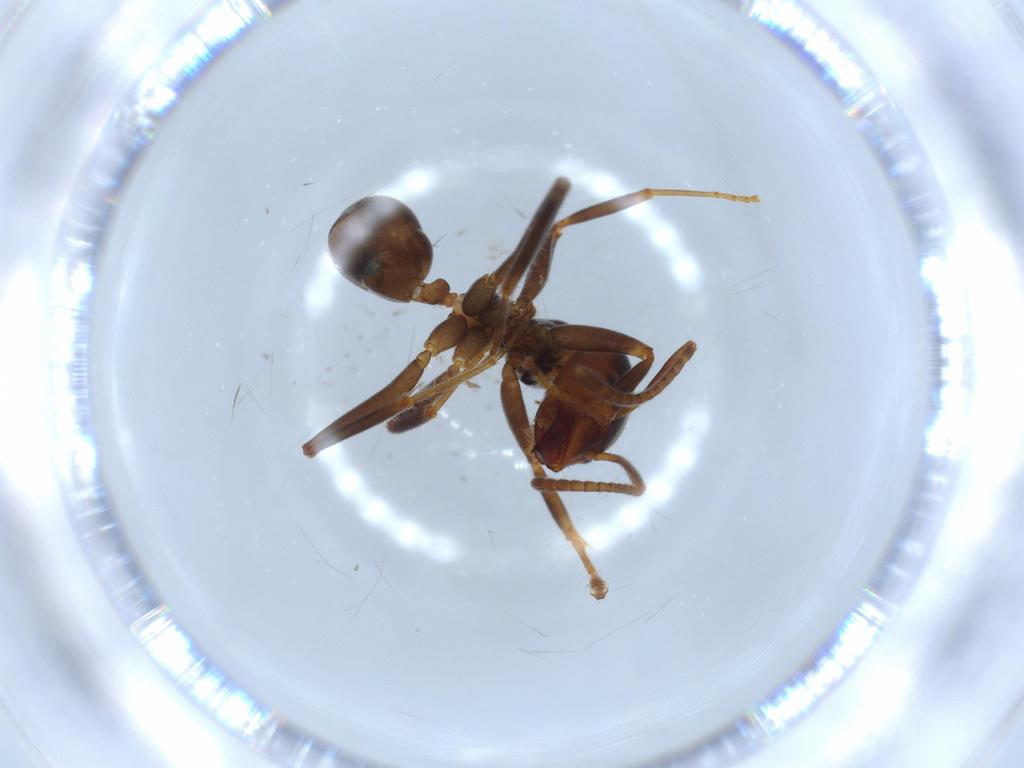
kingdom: Animalia
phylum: Arthropoda
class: Insecta
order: Hymenoptera
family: Formicidae
